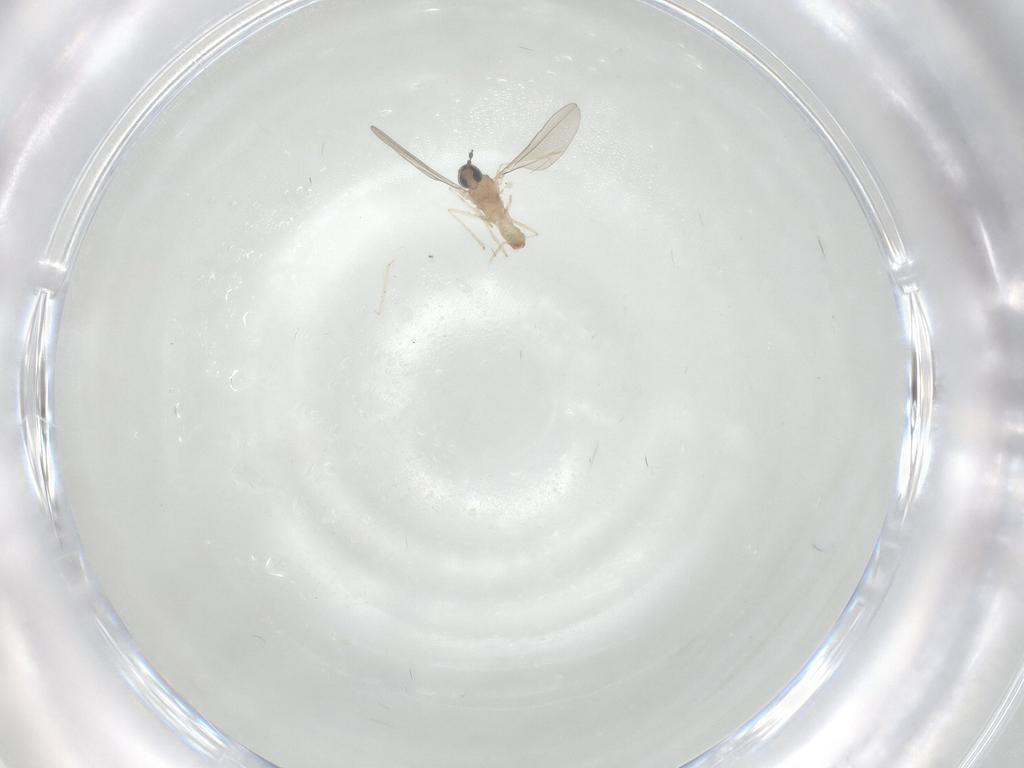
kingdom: Animalia
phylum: Arthropoda
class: Insecta
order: Diptera
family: Cecidomyiidae
